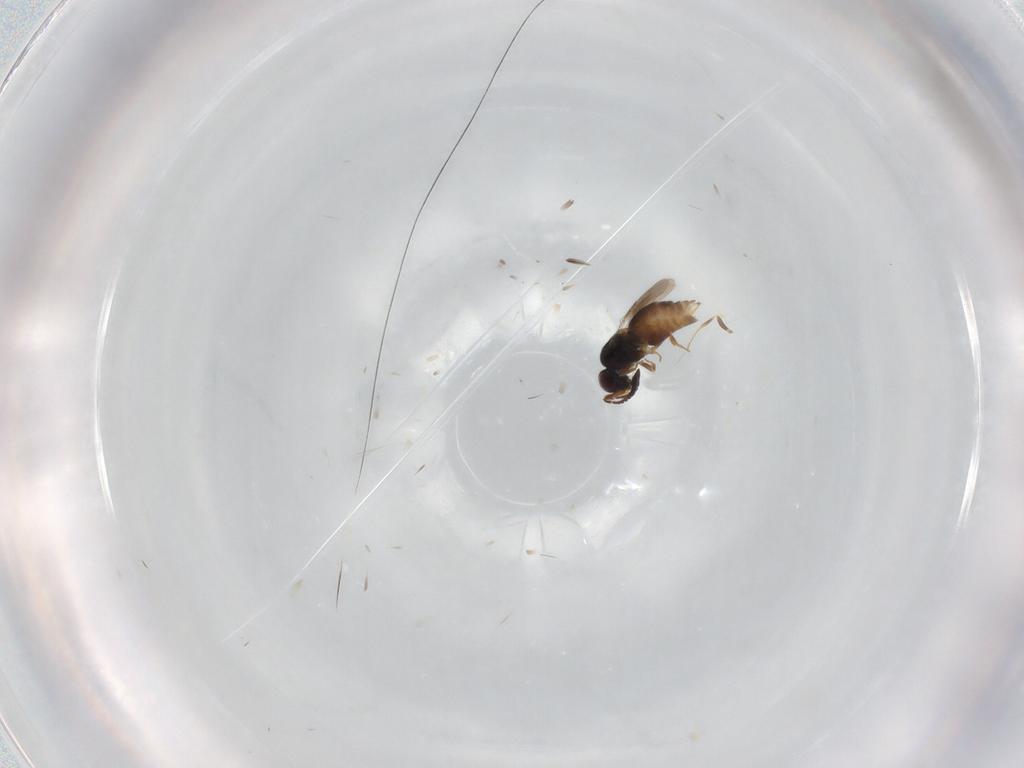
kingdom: Animalia
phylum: Arthropoda
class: Insecta
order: Hymenoptera
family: Crabronidae
